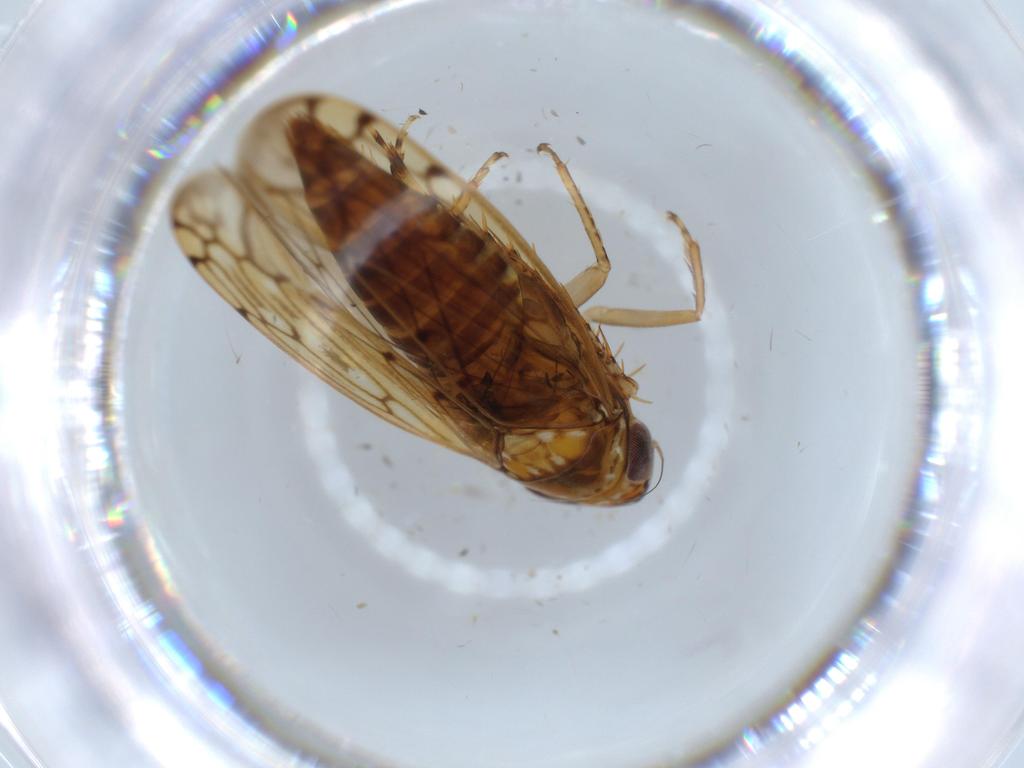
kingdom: Animalia
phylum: Arthropoda
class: Insecta
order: Hemiptera
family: Cicadellidae
